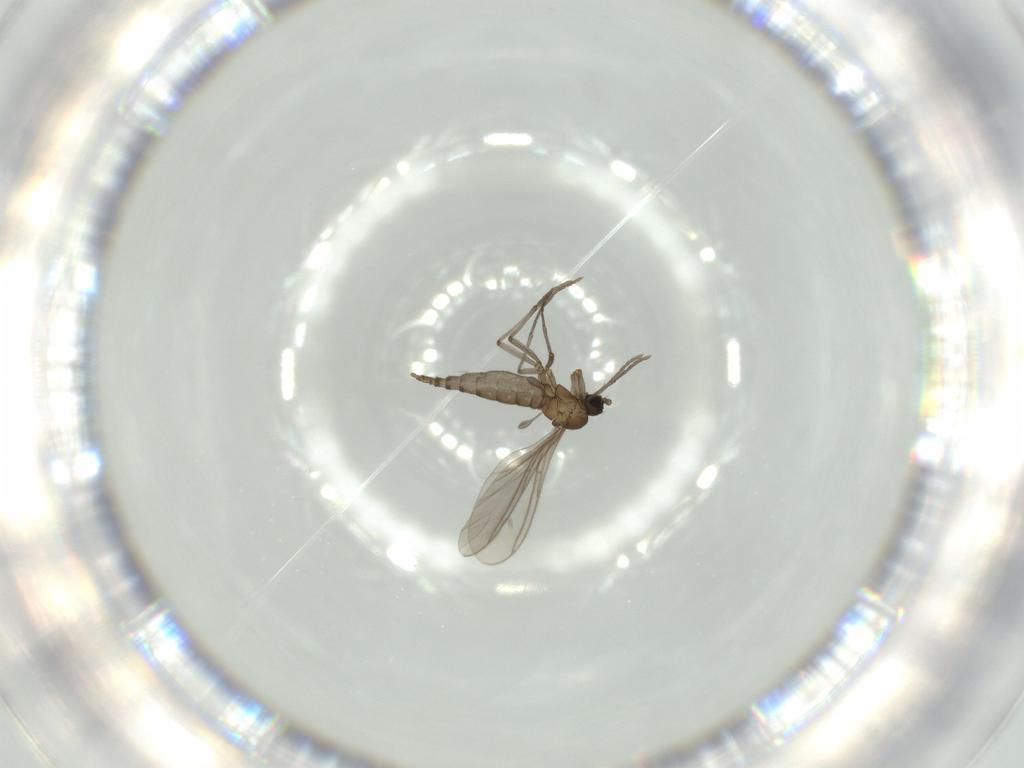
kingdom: Animalia
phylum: Arthropoda
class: Insecta
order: Diptera
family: Sciaridae
